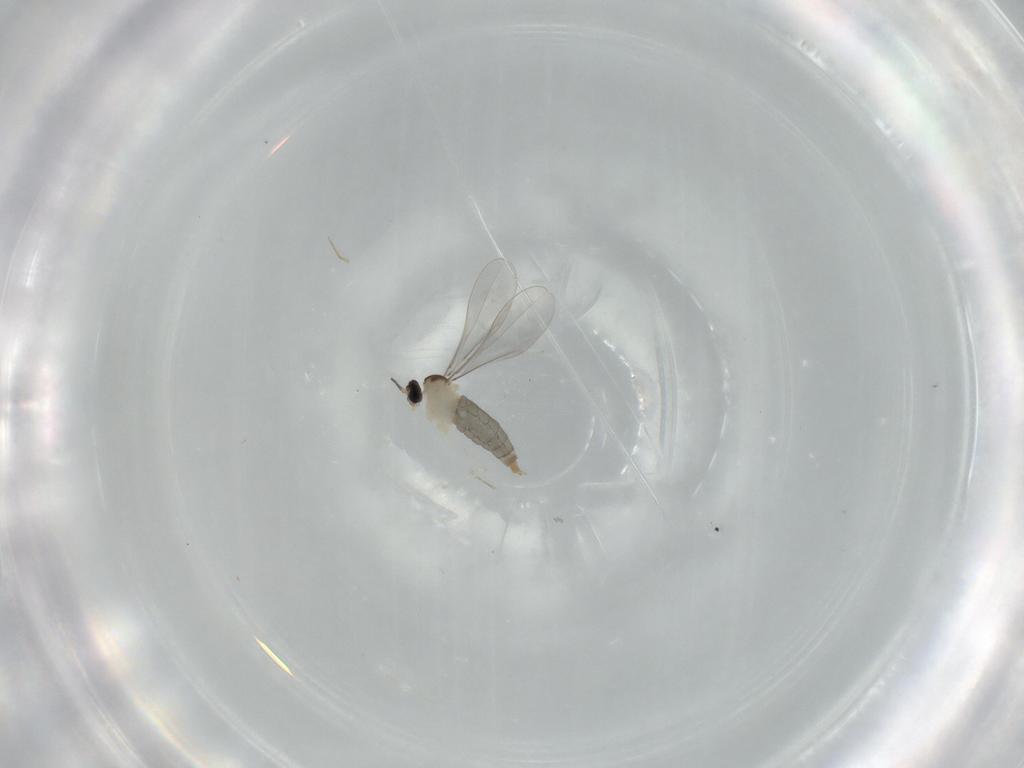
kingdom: Animalia
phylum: Arthropoda
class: Insecta
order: Diptera
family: Cecidomyiidae
